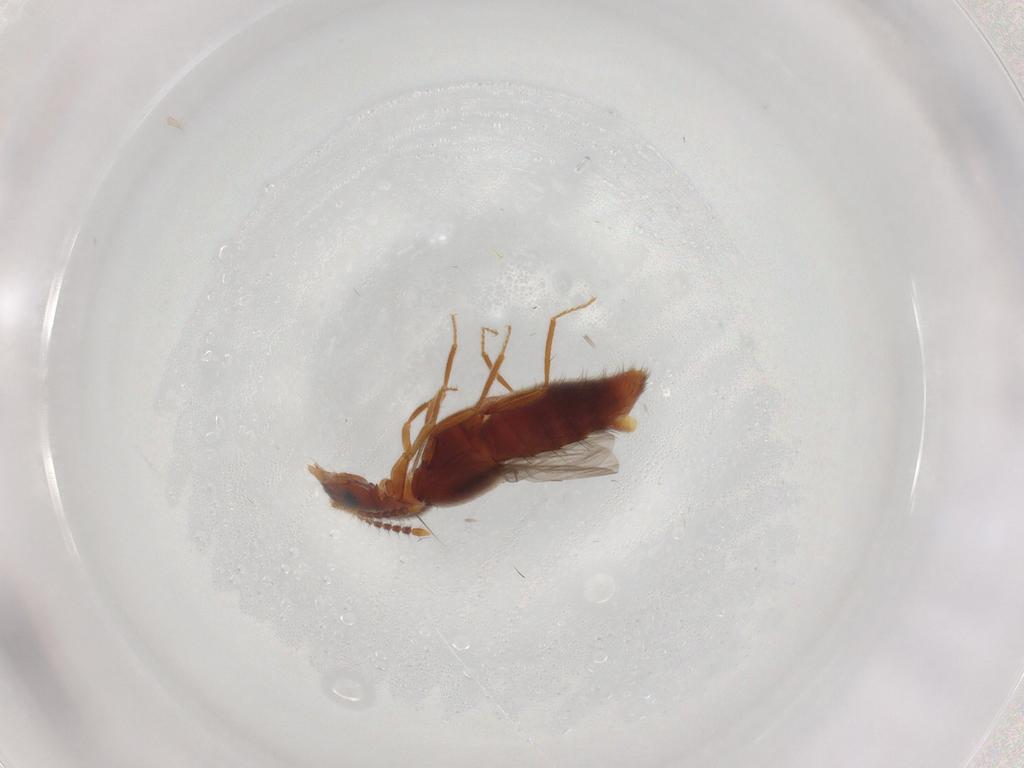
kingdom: Animalia
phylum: Arthropoda
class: Insecta
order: Coleoptera
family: Staphylinidae
